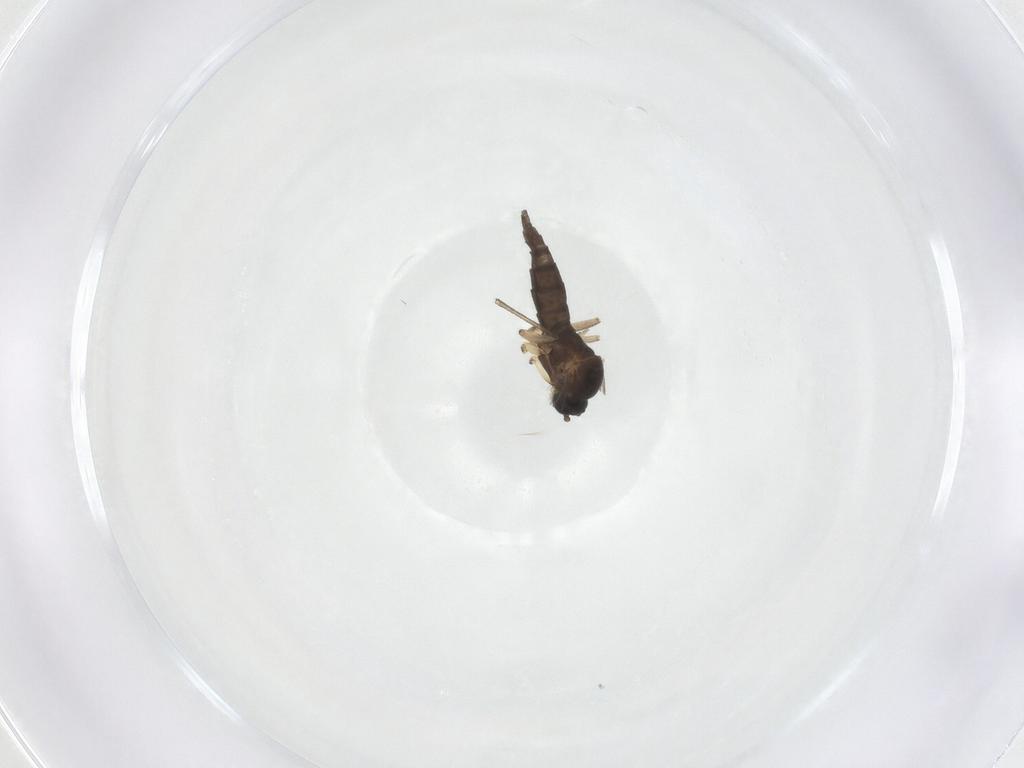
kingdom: Animalia
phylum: Arthropoda
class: Insecta
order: Diptera
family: Sciaridae
